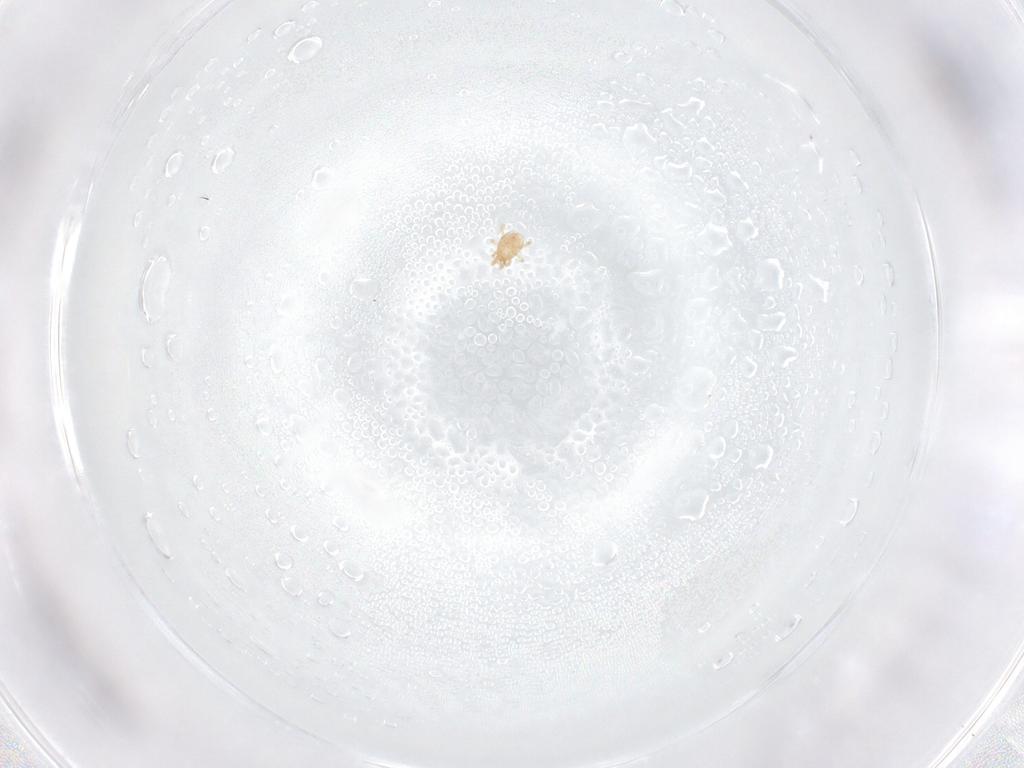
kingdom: Animalia
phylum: Arthropoda
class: Arachnida
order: Mesostigmata
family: Phytoseiidae
